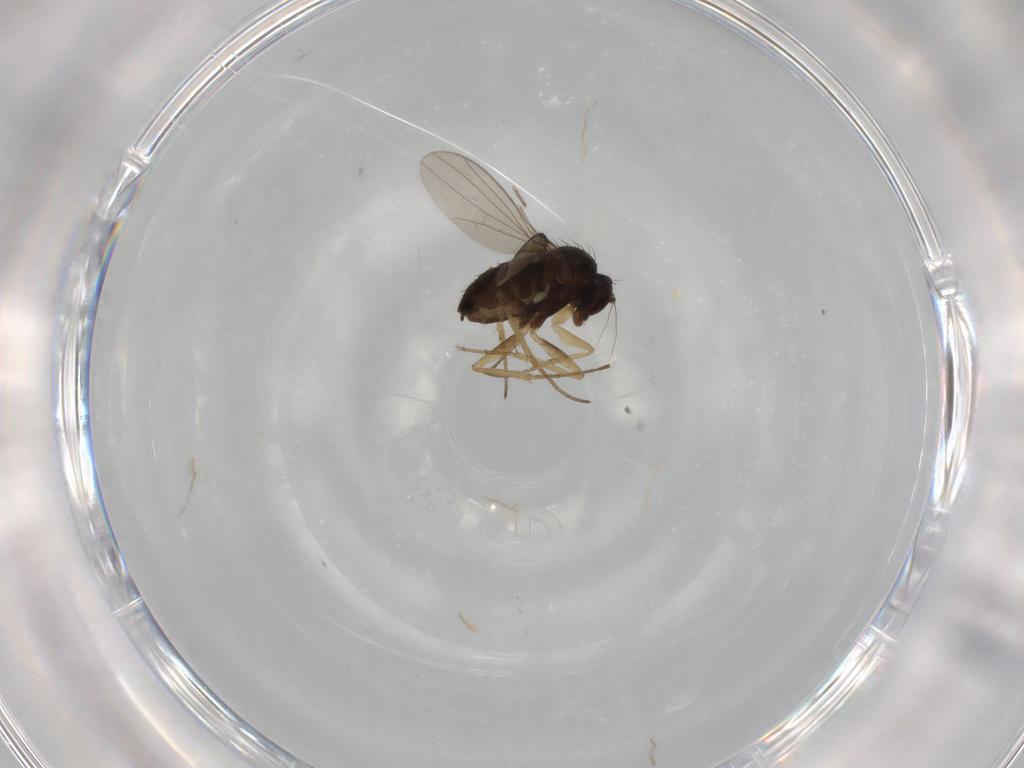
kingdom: Animalia
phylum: Arthropoda
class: Insecta
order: Diptera
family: Dolichopodidae
